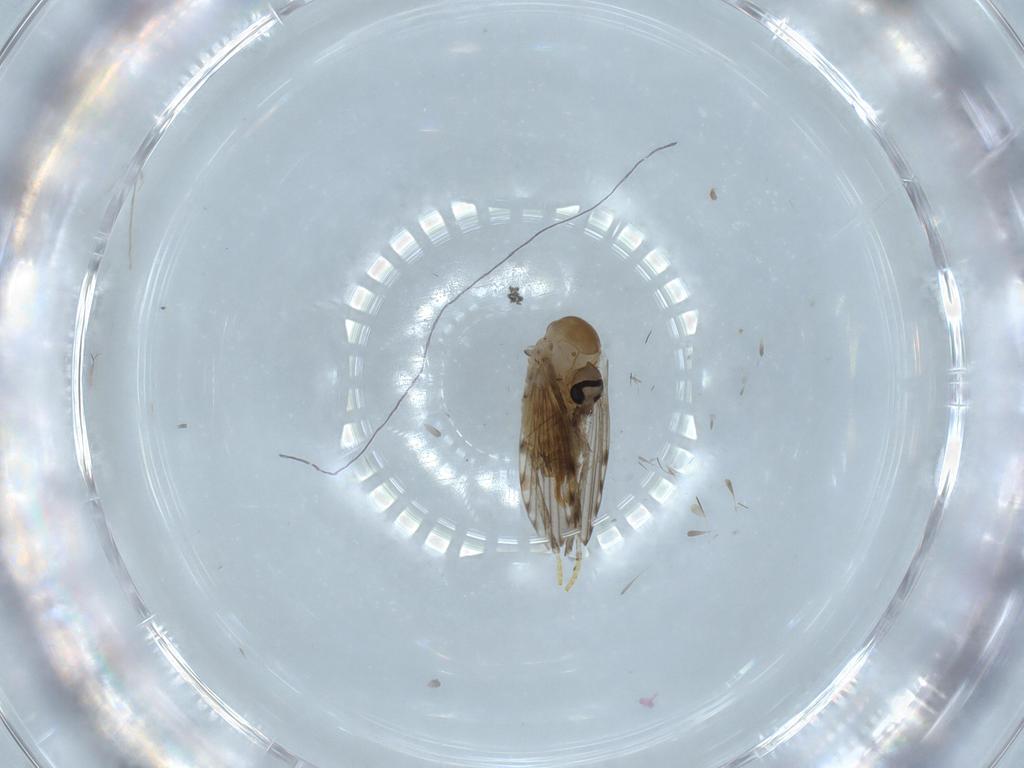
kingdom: Animalia
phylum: Arthropoda
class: Insecta
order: Diptera
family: Psychodidae
